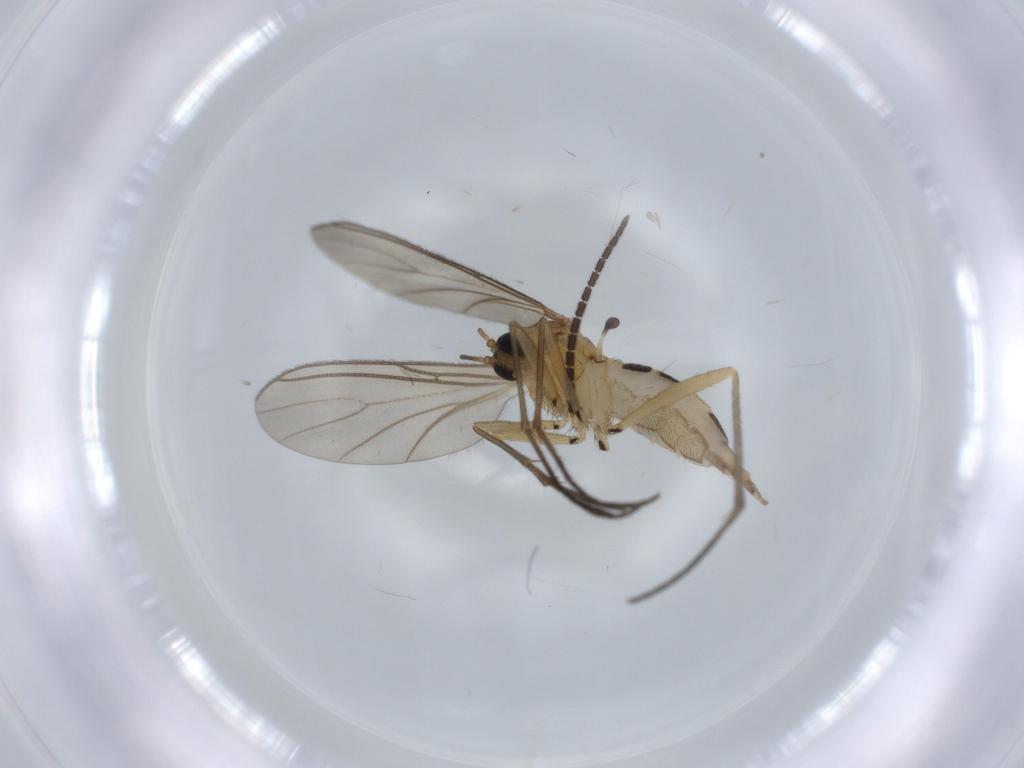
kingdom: Animalia
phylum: Arthropoda
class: Insecta
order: Diptera
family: Sciaridae
